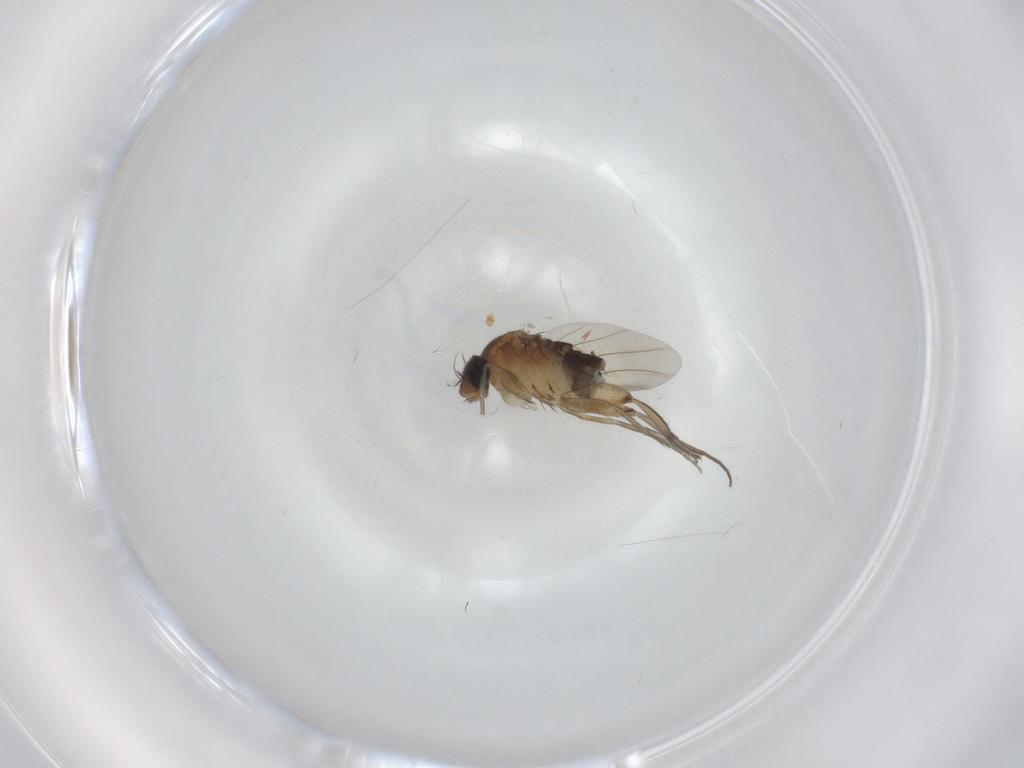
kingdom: Animalia
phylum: Arthropoda
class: Insecta
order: Diptera
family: Cecidomyiidae
